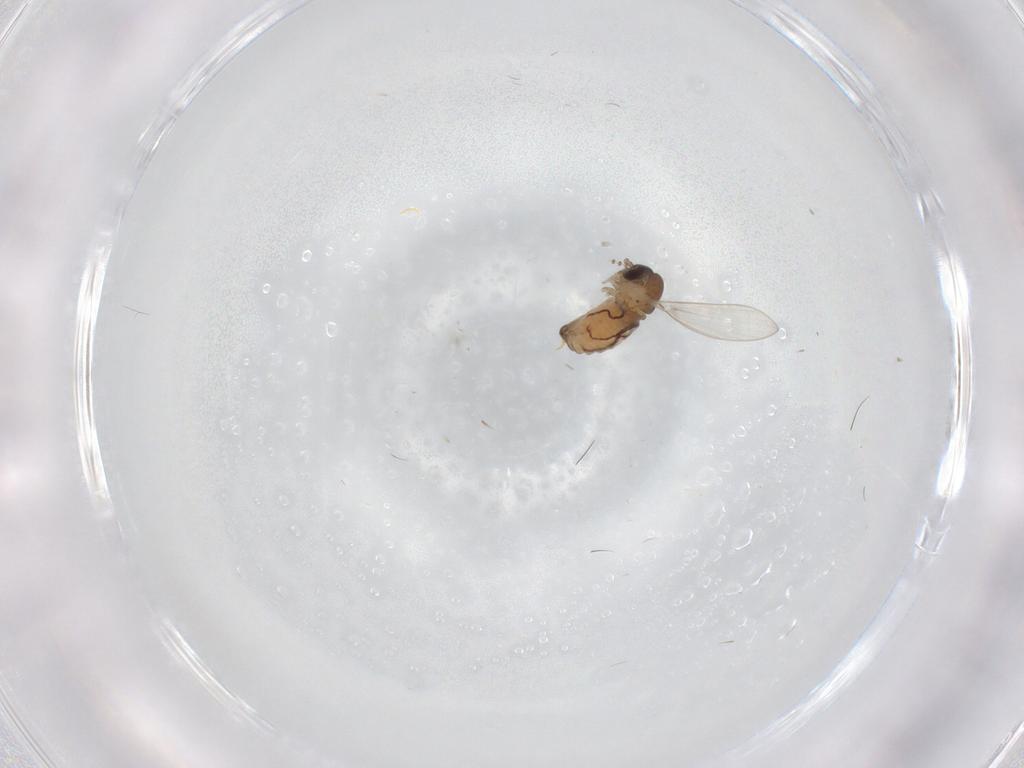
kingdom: Animalia
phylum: Arthropoda
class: Insecta
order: Diptera
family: Psychodidae
